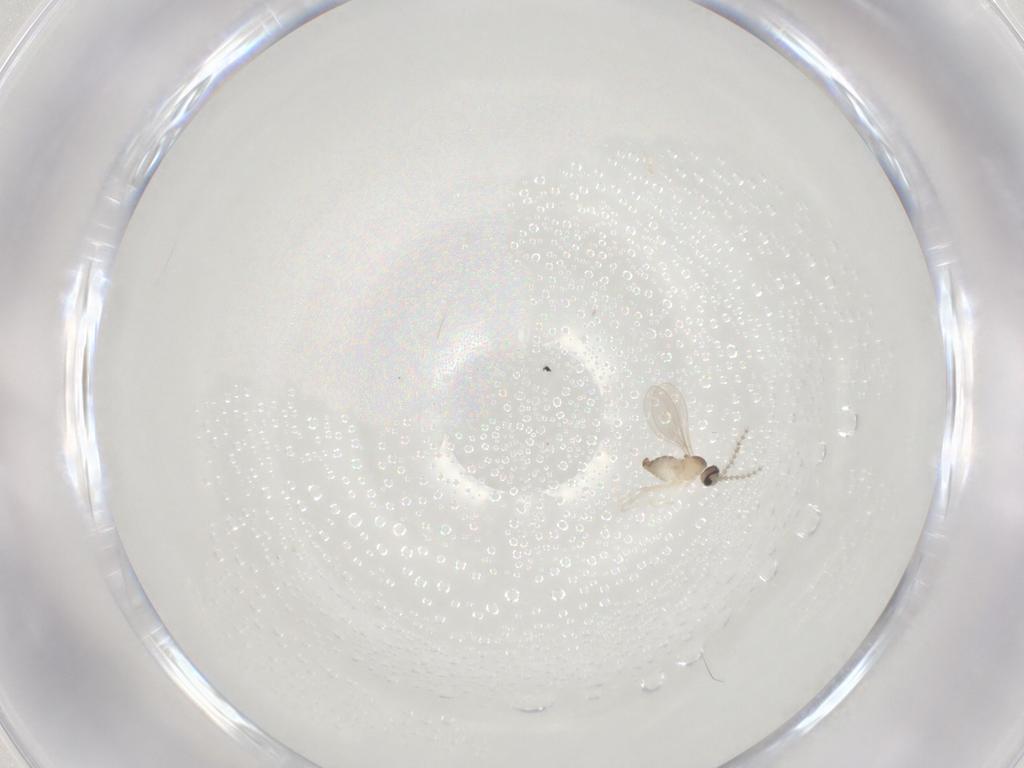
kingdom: Animalia
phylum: Arthropoda
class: Insecta
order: Diptera
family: Cecidomyiidae
